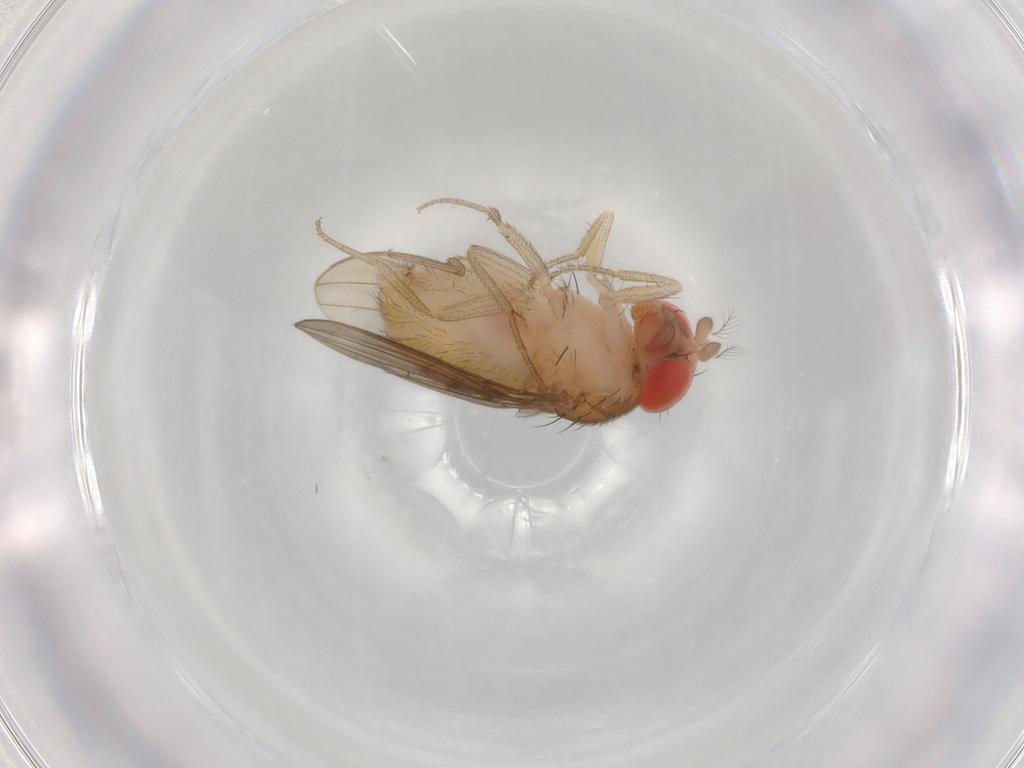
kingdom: Animalia
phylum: Arthropoda
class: Insecta
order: Diptera
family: Drosophilidae
